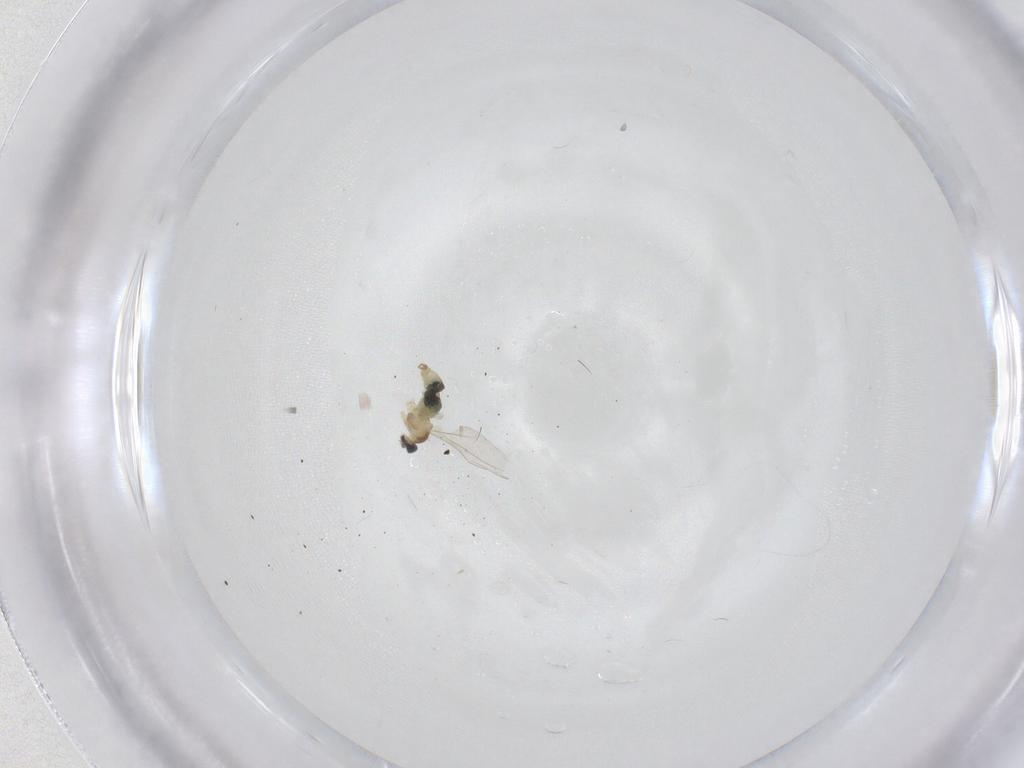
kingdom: Animalia
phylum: Arthropoda
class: Insecta
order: Diptera
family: Cecidomyiidae
